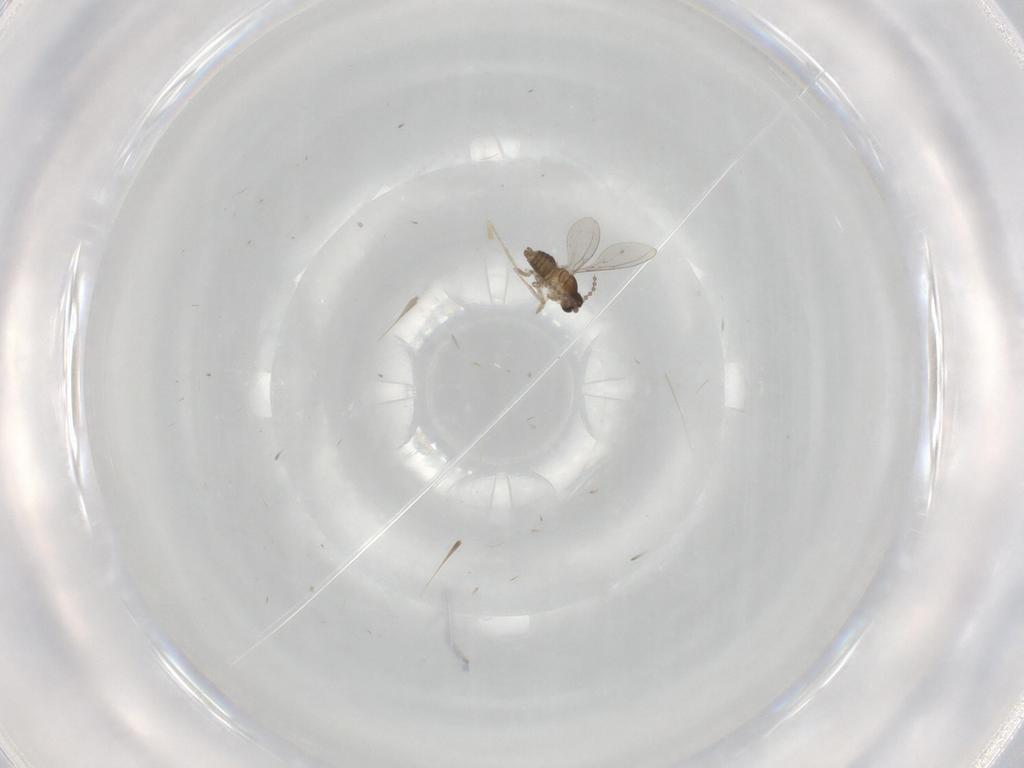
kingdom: Animalia
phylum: Arthropoda
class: Insecta
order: Diptera
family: Cecidomyiidae
